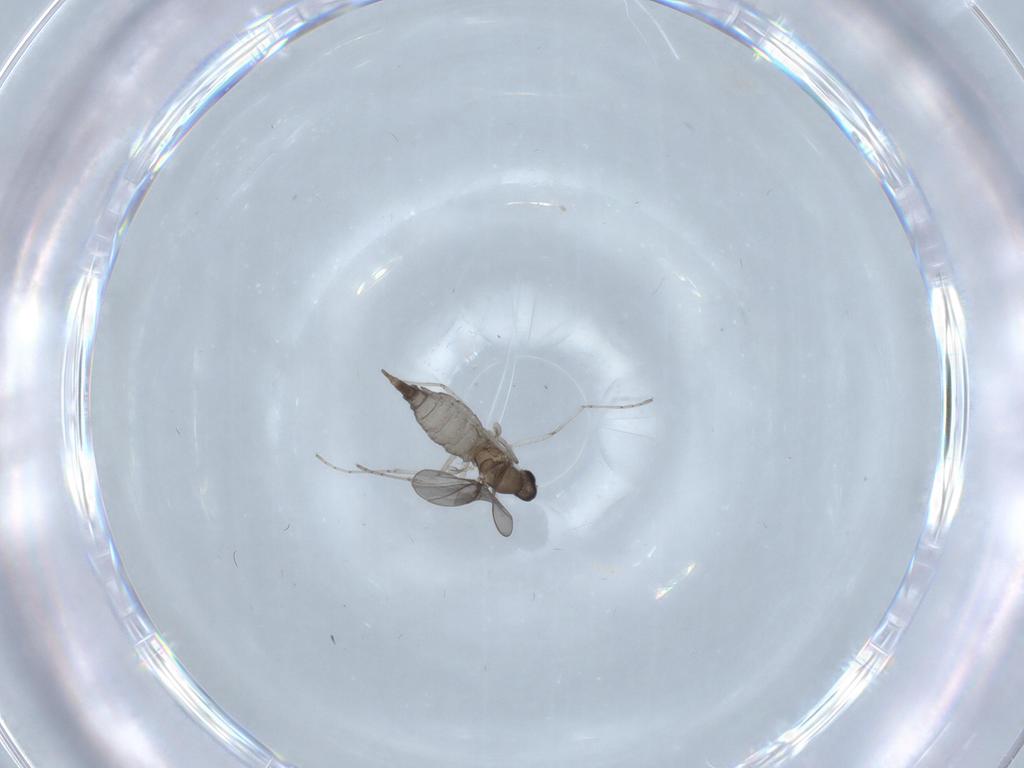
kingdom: Animalia
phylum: Arthropoda
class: Insecta
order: Diptera
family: Cecidomyiidae
